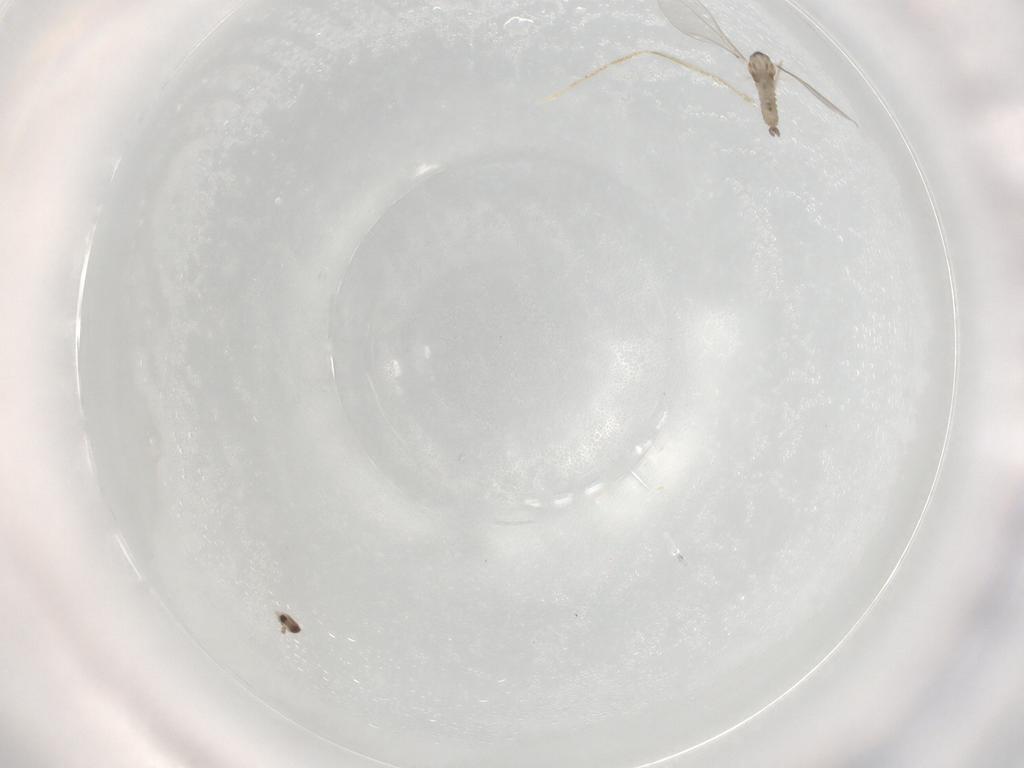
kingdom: Animalia
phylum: Arthropoda
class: Insecta
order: Diptera
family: Cecidomyiidae
